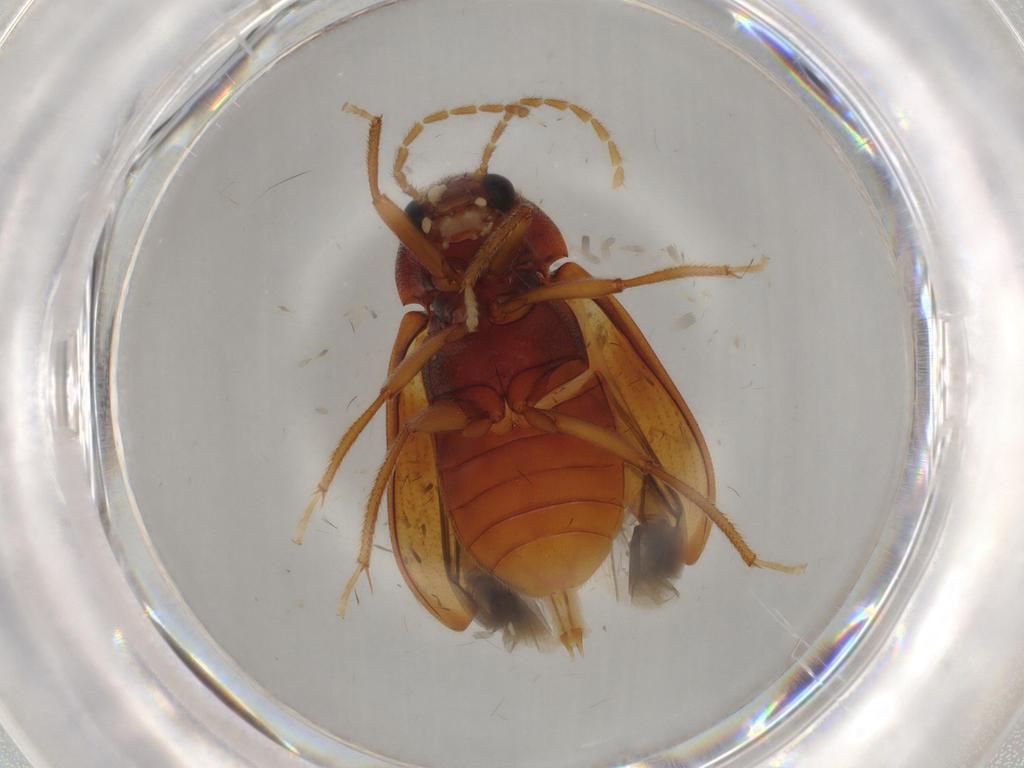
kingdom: Animalia
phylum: Arthropoda
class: Insecta
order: Coleoptera
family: Ptilodactylidae
